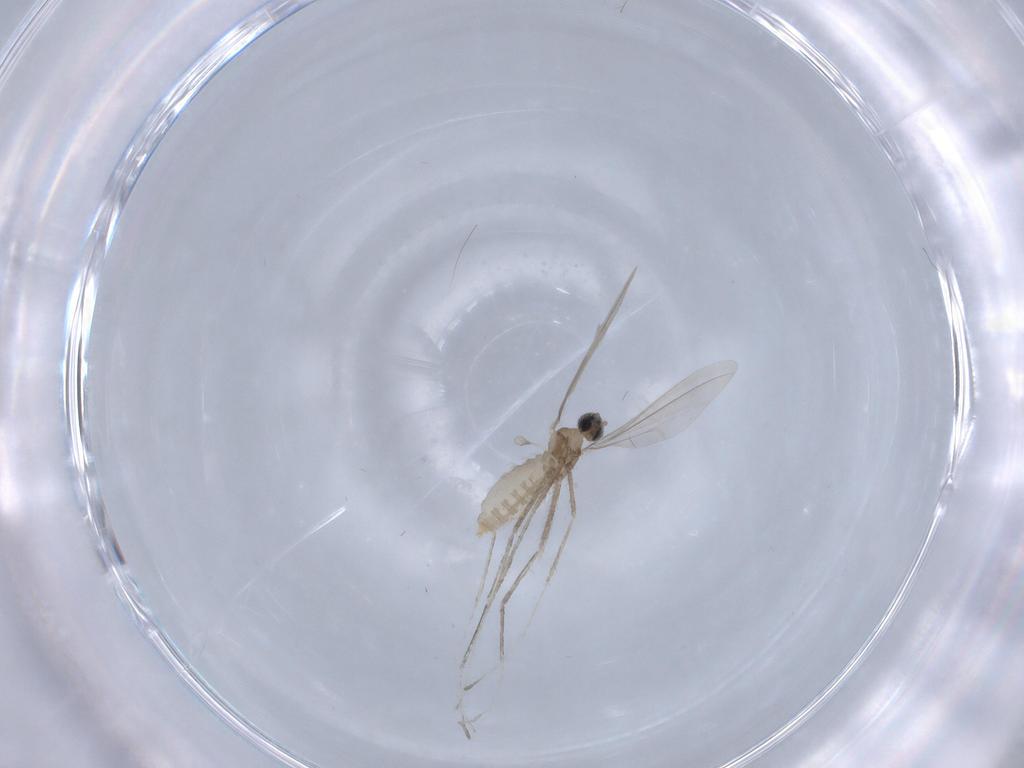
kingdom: Animalia
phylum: Arthropoda
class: Insecta
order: Diptera
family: Cecidomyiidae
